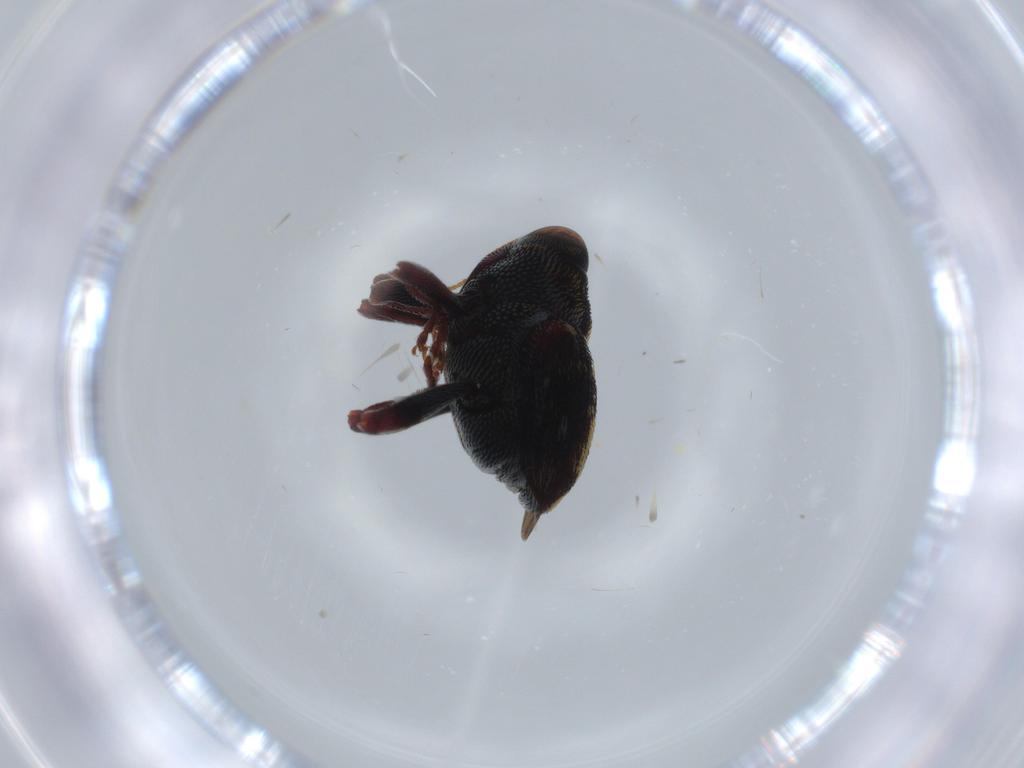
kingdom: Animalia
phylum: Arthropoda
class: Insecta
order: Coleoptera
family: Curculionidae
